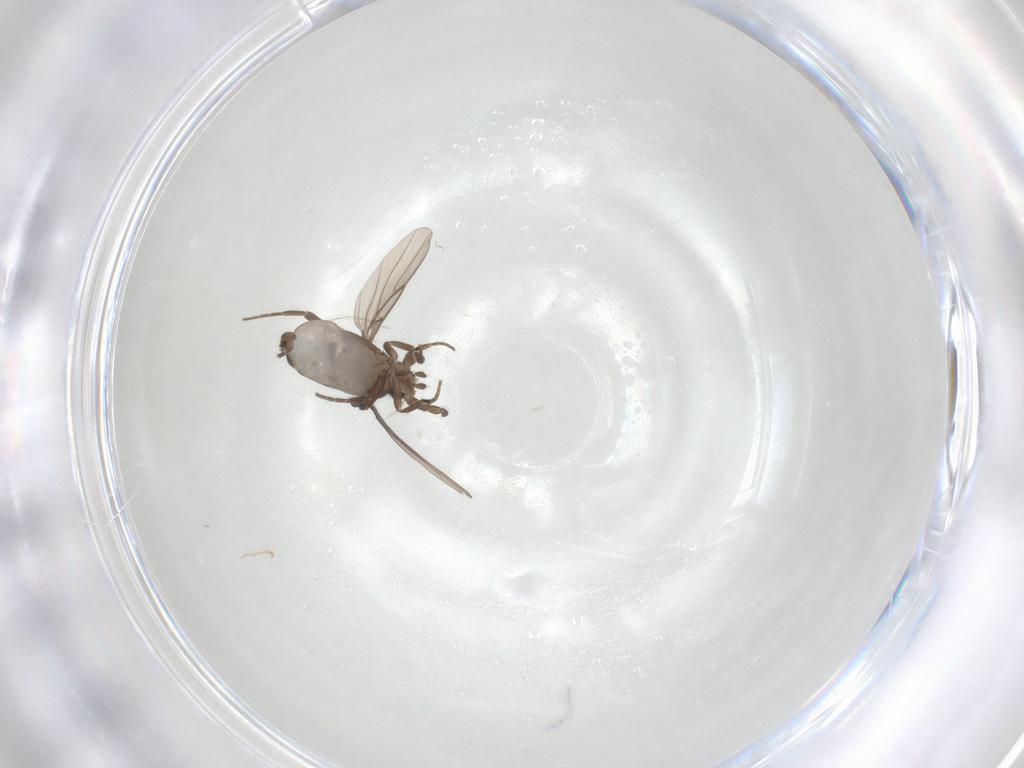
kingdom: Animalia
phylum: Arthropoda
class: Insecta
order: Diptera
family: Phoridae
